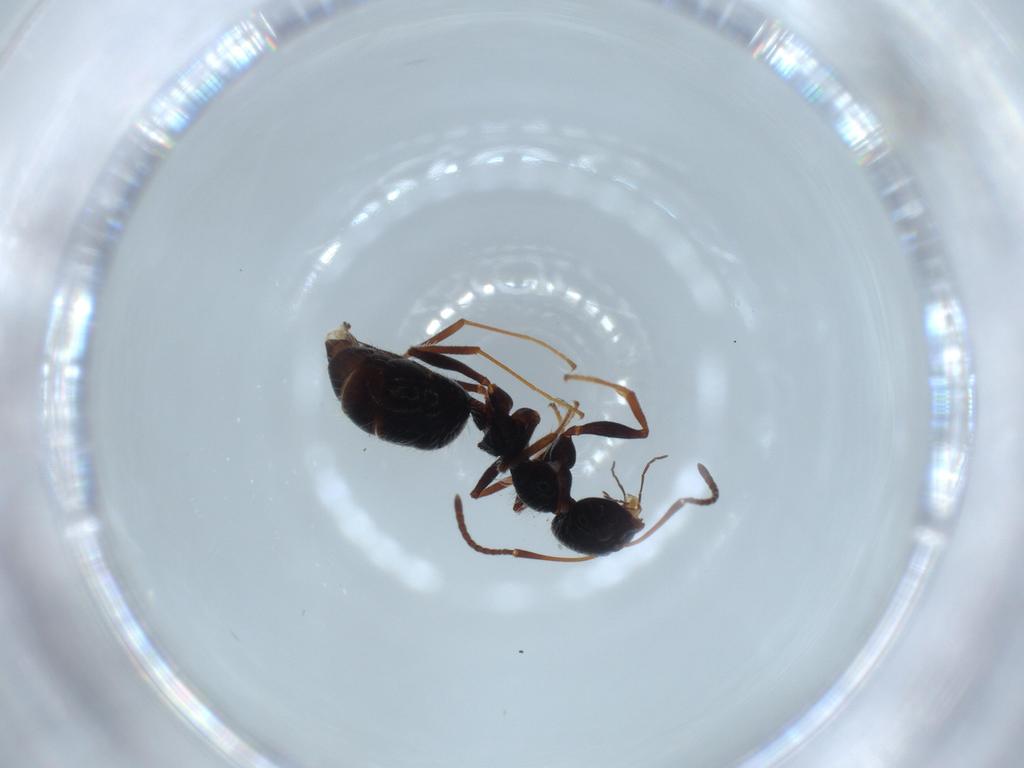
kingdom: Animalia
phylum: Arthropoda
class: Insecta
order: Hymenoptera
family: Formicidae
